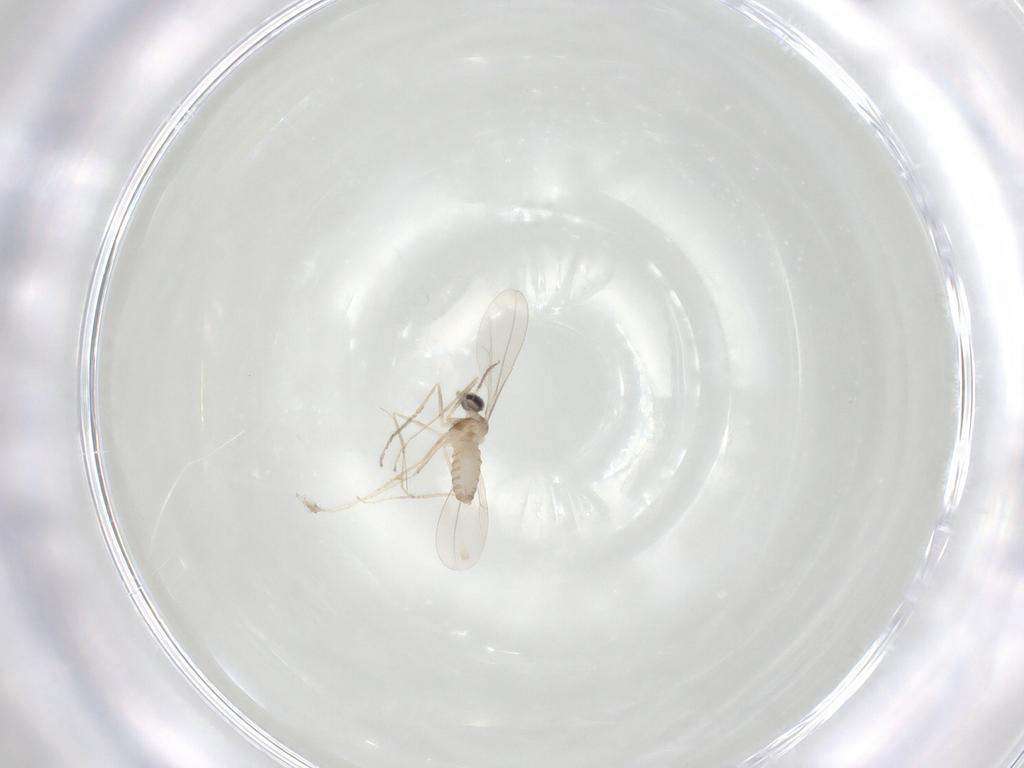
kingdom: Animalia
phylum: Arthropoda
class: Insecta
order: Diptera
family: Cecidomyiidae
